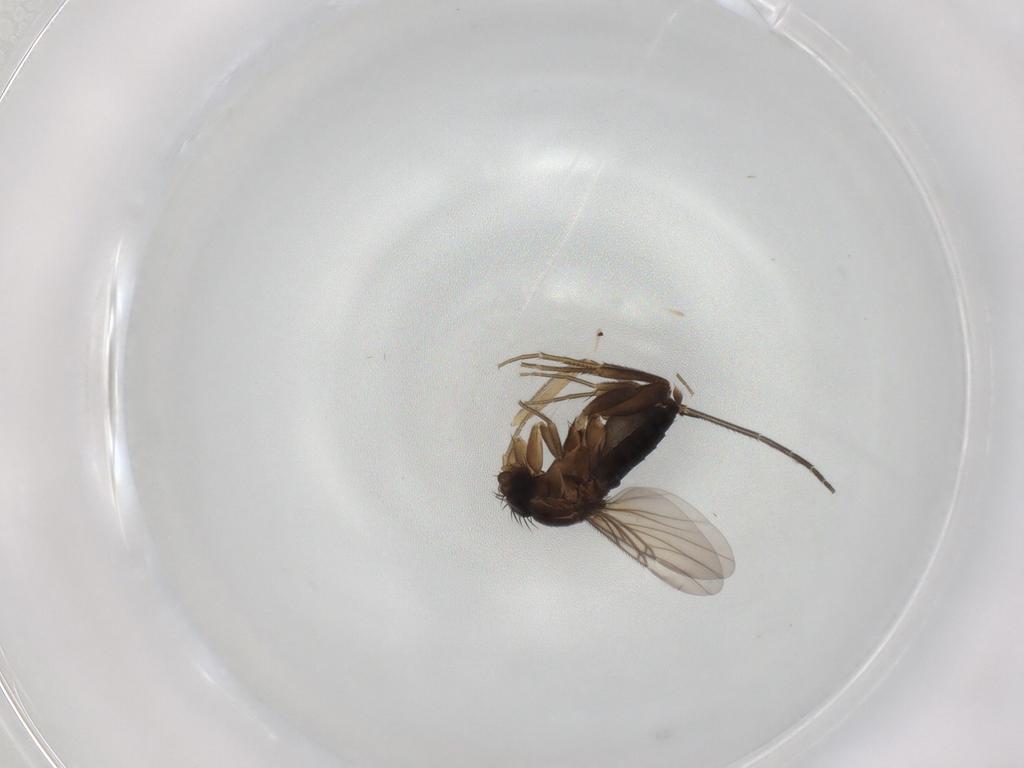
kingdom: Animalia
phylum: Arthropoda
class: Insecta
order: Diptera
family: Phoridae
